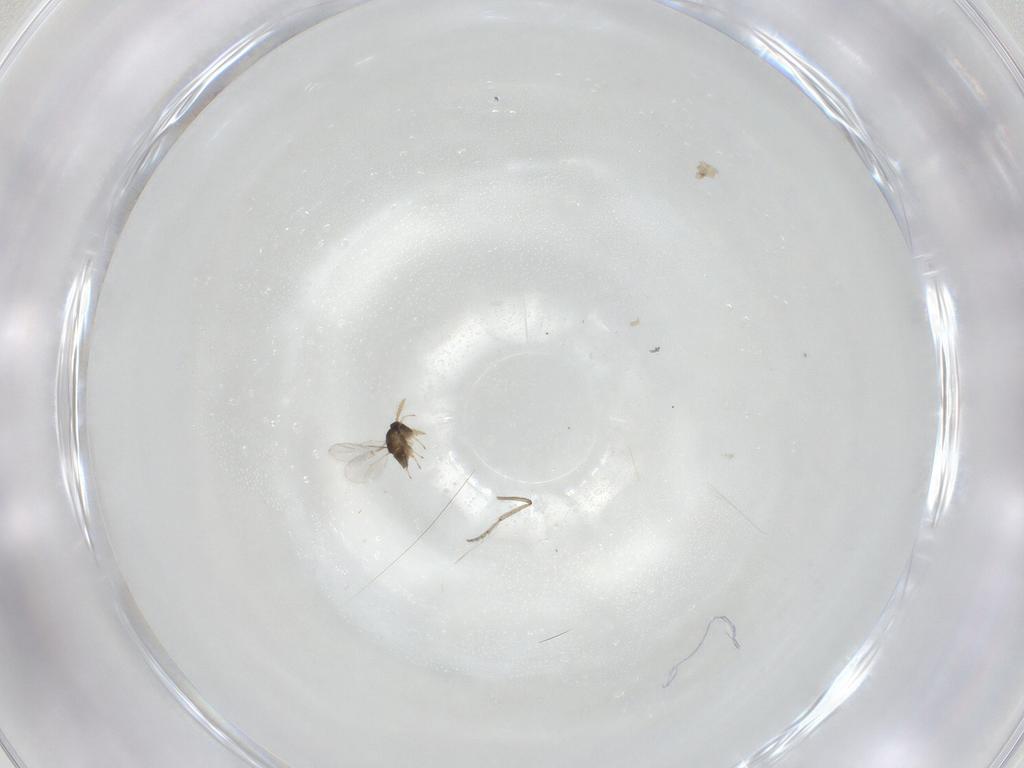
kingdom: Animalia
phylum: Arthropoda
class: Insecta
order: Hymenoptera
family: Encyrtidae
